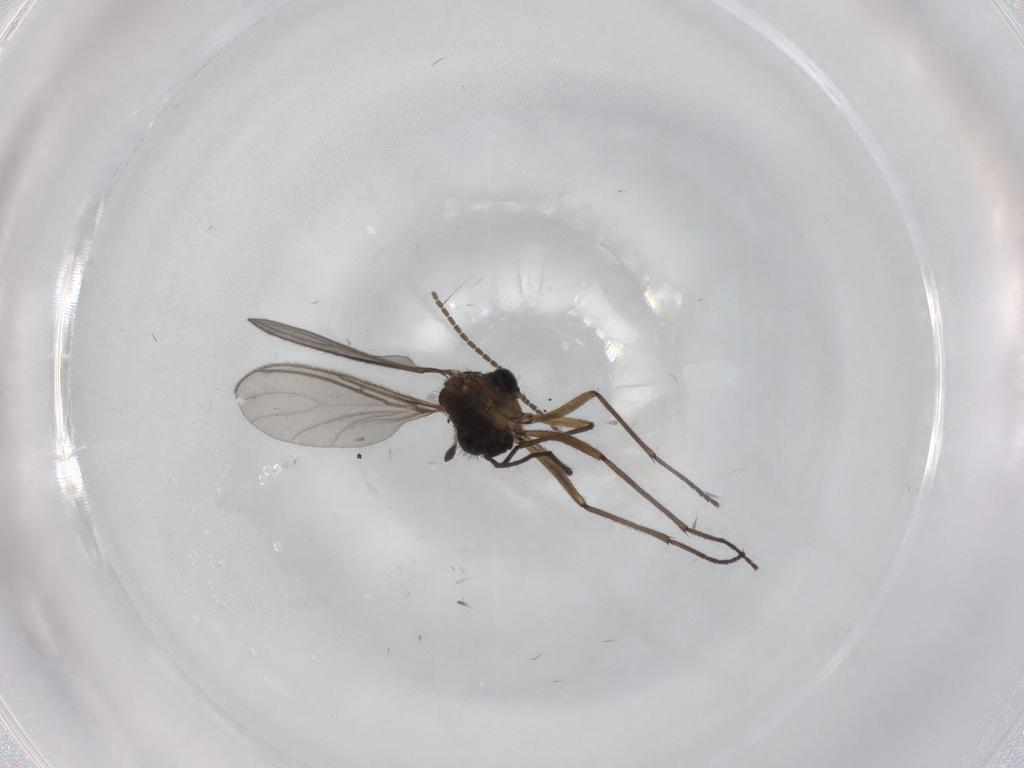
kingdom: Animalia
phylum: Arthropoda
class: Insecta
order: Diptera
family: Sciaridae
